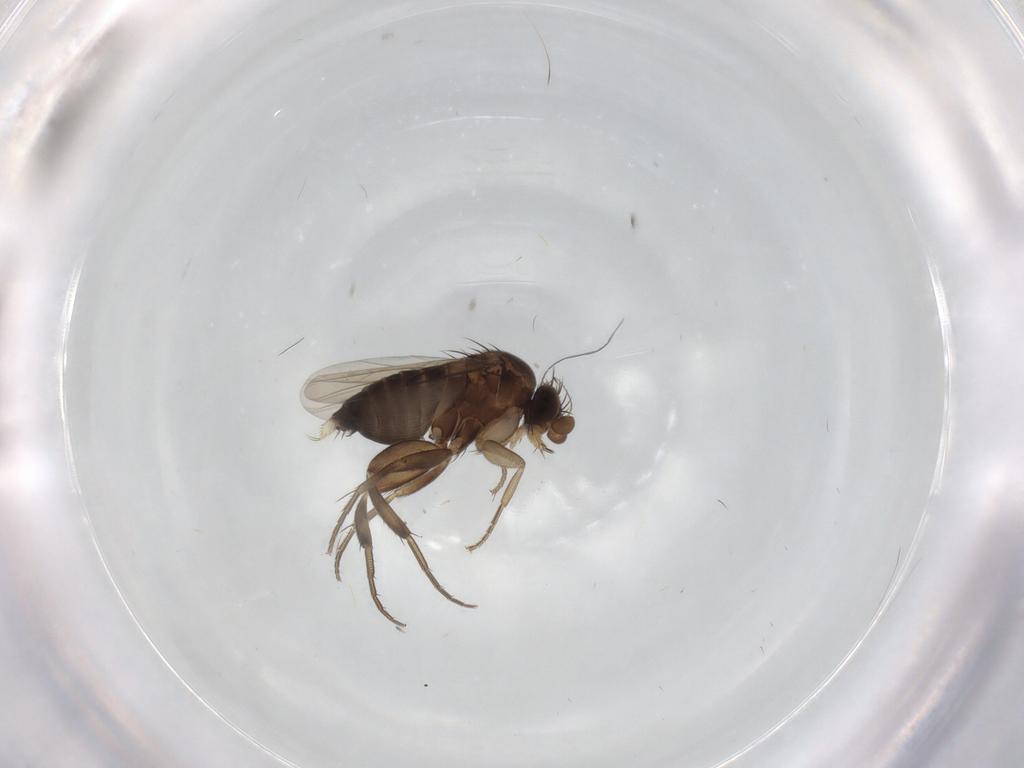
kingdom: Animalia
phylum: Arthropoda
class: Insecta
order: Diptera
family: Phoridae
